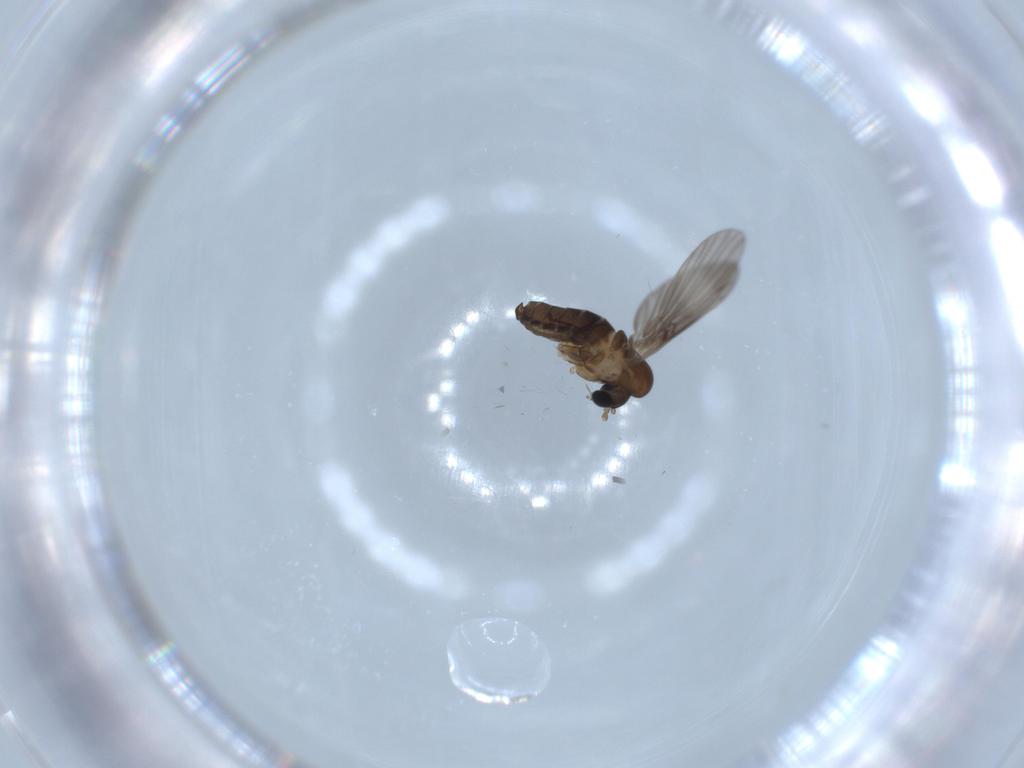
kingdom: Animalia
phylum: Arthropoda
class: Insecta
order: Diptera
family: Psychodidae
